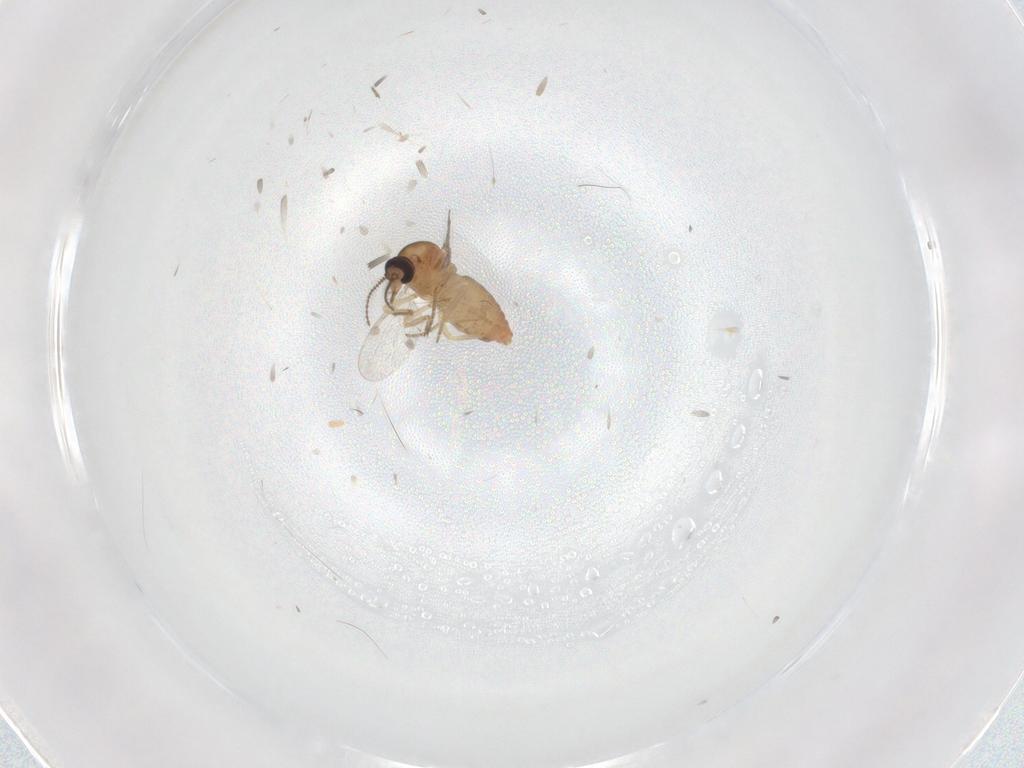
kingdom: Animalia
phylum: Arthropoda
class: Insecta
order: Diptera
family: Ceratopogonidae
